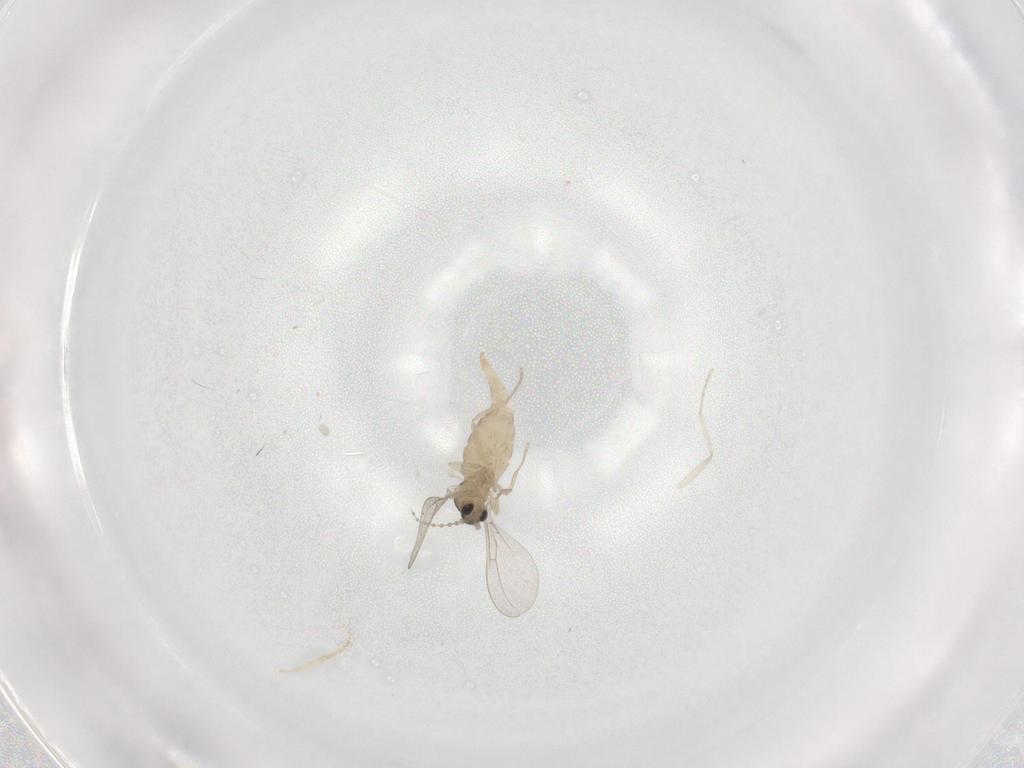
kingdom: Animalia
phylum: Arthropoda
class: Insecta
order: Diptera
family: Cecidomyiidae
